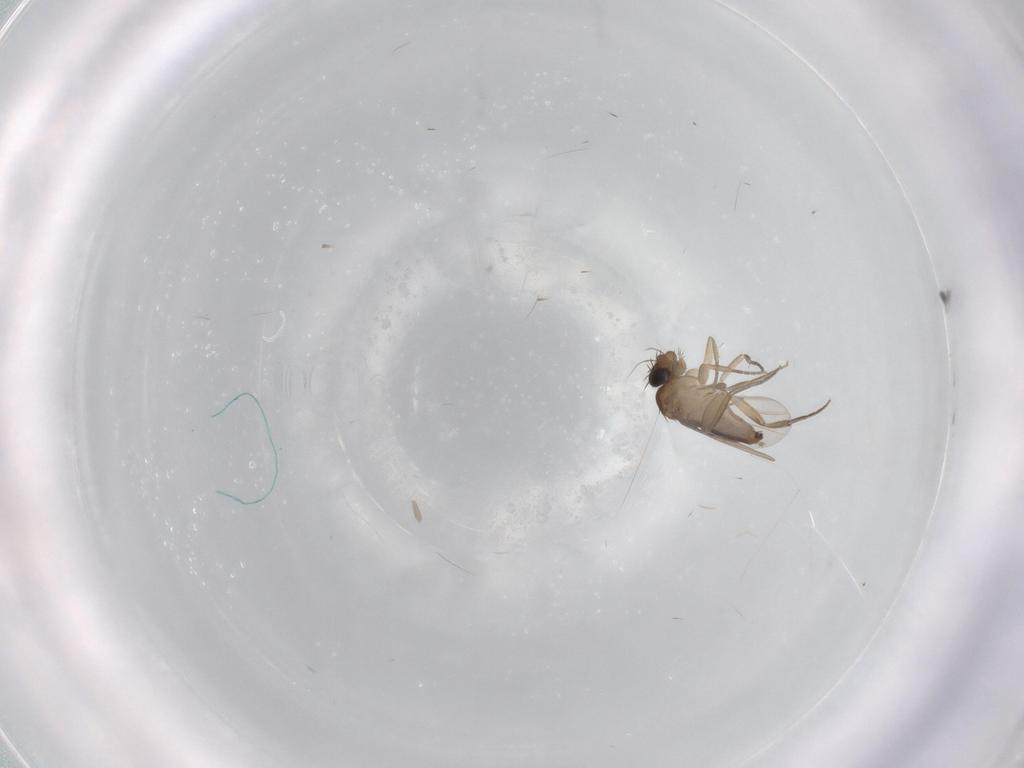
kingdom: Animalia
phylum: Arthropoda
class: Insecta
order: Diptera
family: Phoridae
